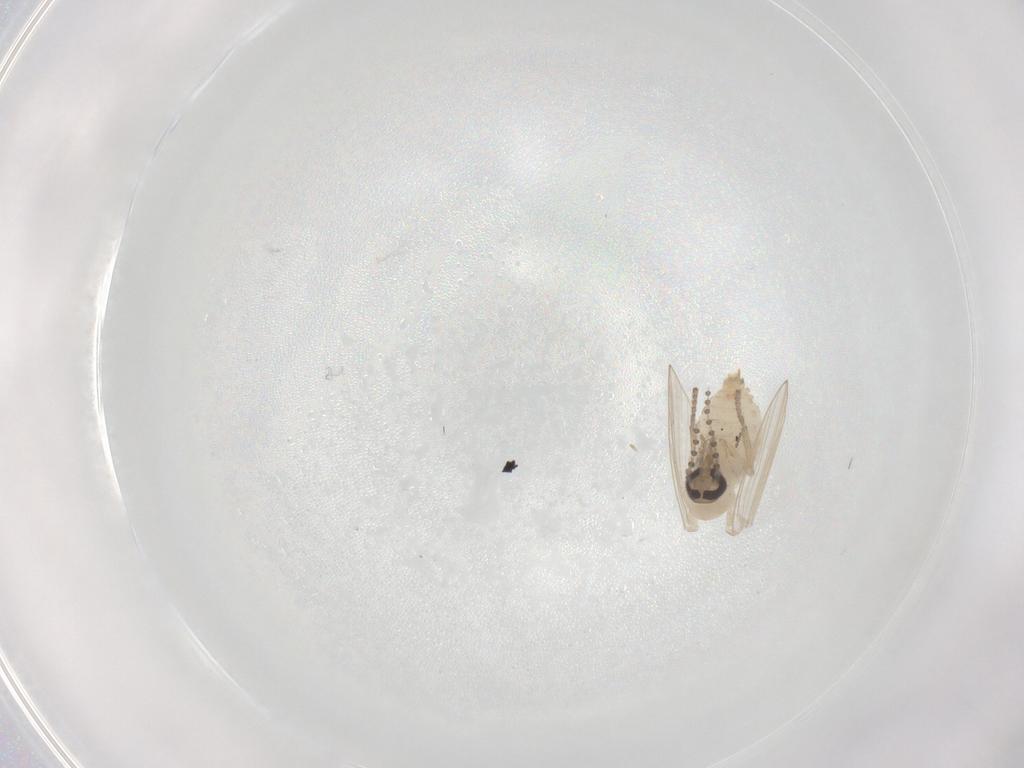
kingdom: Animalia
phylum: Arthropoda
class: Insecta
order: Diptera
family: Psychodidae
